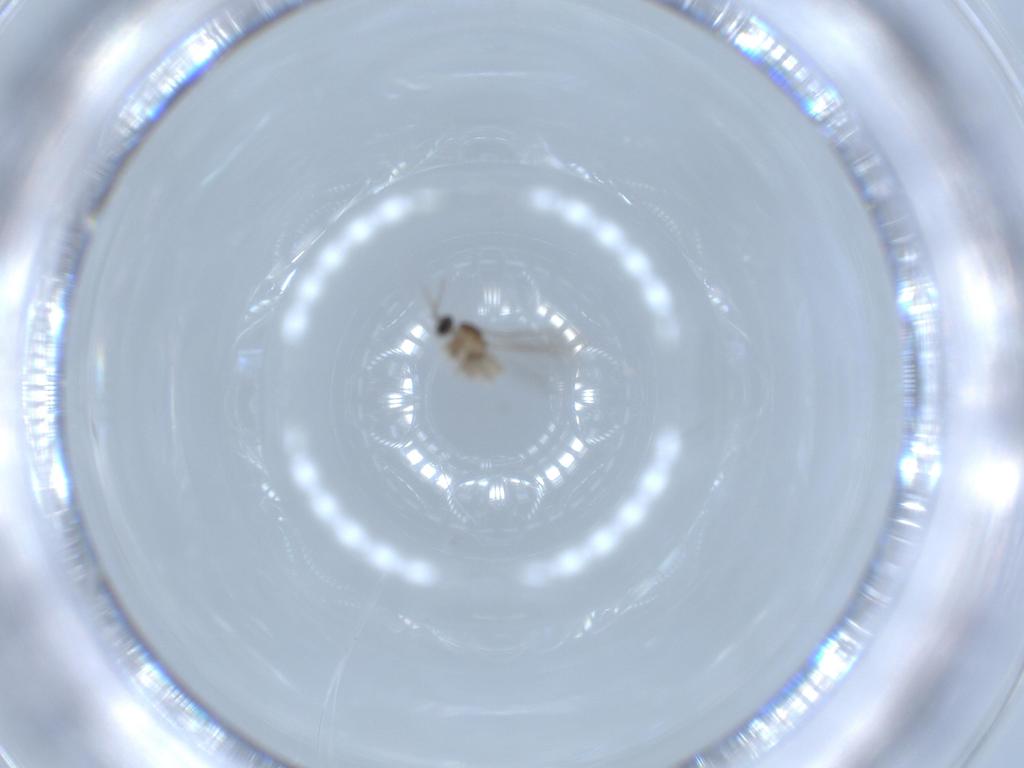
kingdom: Animalia
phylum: Arthropoda
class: Insecta
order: Diptera
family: Cecidomyiidae
